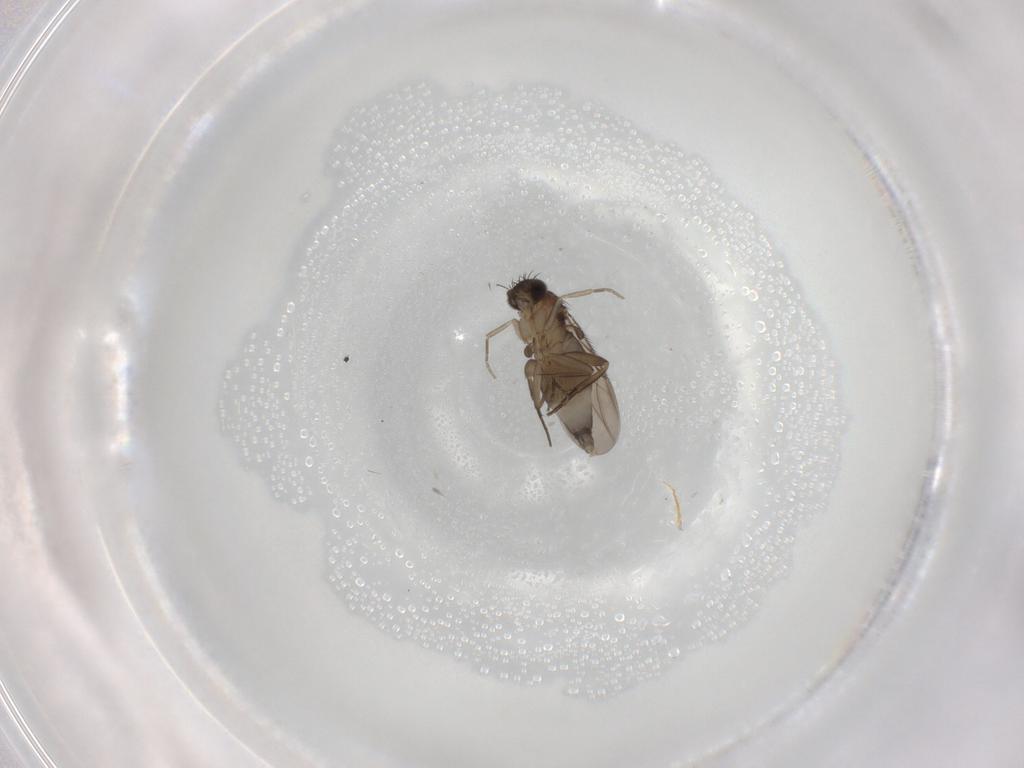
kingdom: Animalia
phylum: Arthropoda
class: Insecta
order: Diptera
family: Phoridae
